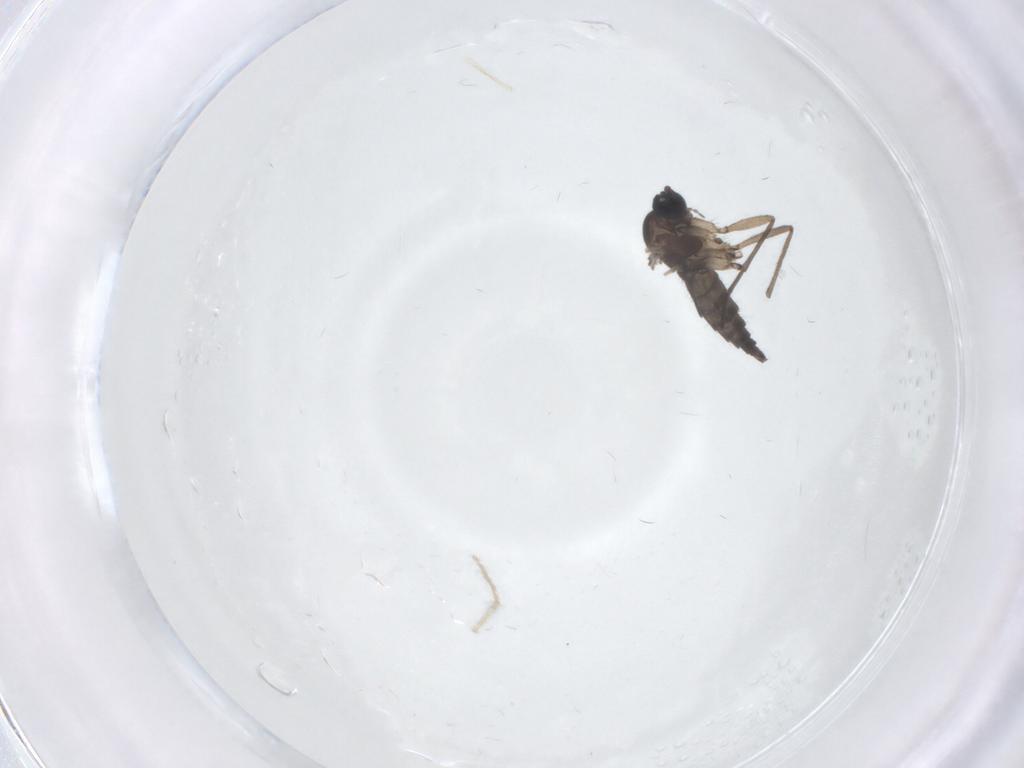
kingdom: Animalia
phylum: Arthropoda
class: Insecta
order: Diptera
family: Sciaridae
